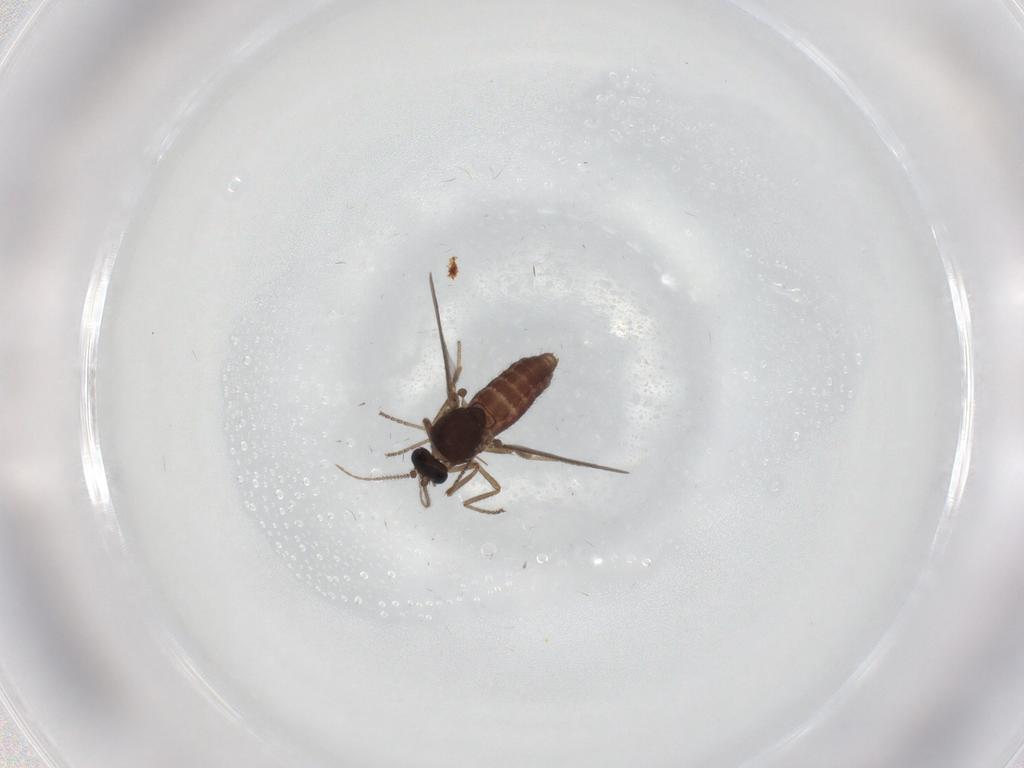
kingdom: Animalia
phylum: Arthropoda
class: Insecta
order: Diptera
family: Ceratopogonidae
